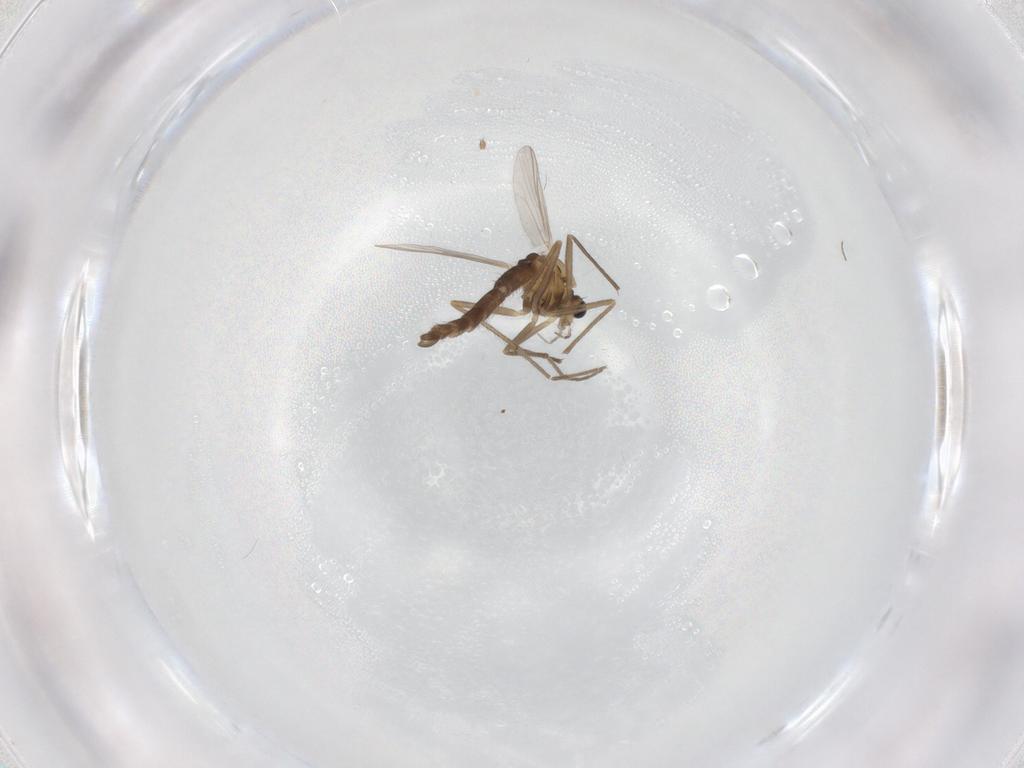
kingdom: Animalia
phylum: Arthropoda
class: Insecta
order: Diptera
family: Chironomidae
